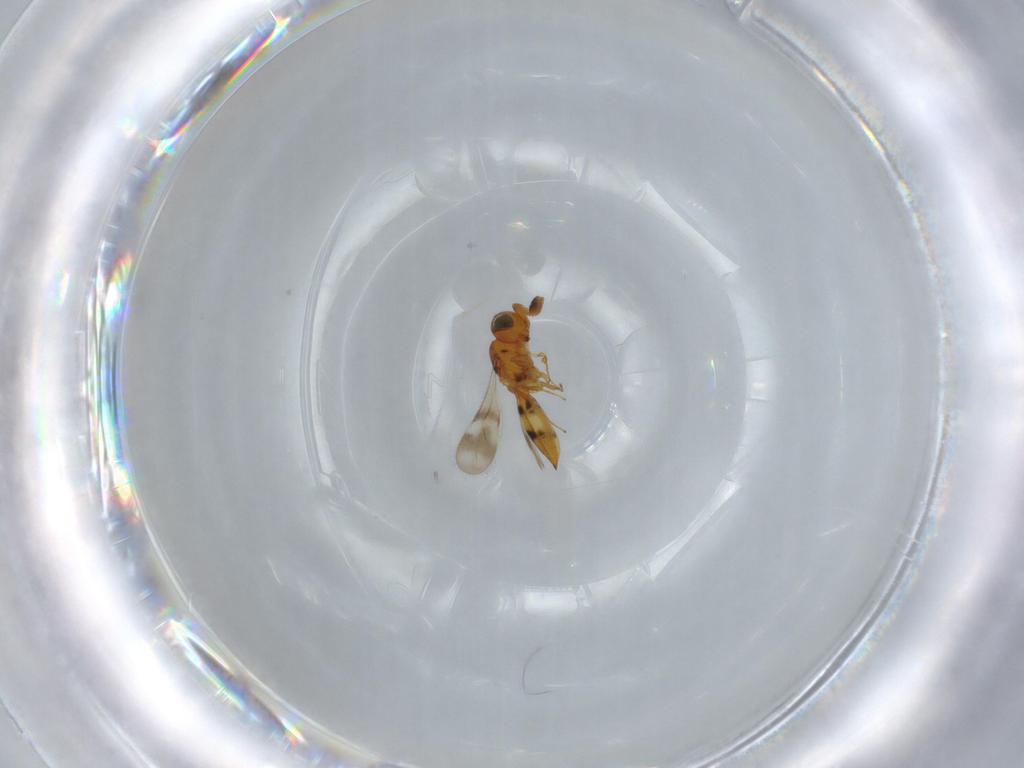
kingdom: Animalia
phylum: Arthropoda
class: Insecta
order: Hymenoptera
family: Scelionidae
